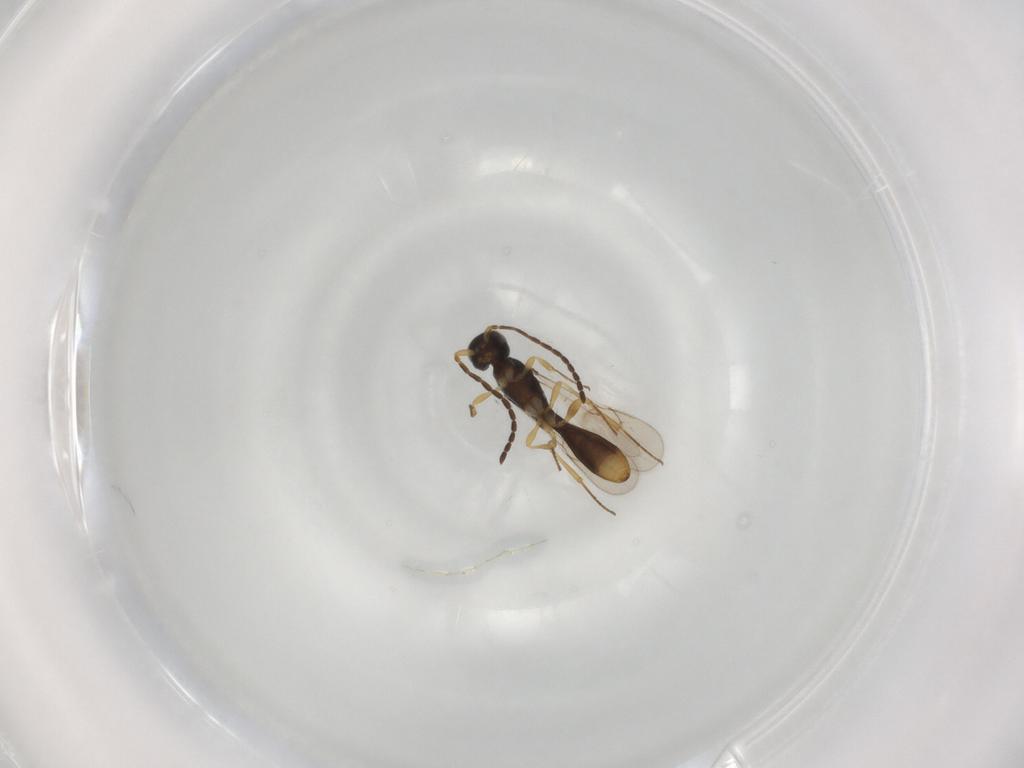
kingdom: Animalia
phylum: Arthropoda
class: Insecta
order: Hymenoptera
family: Scelionidae
